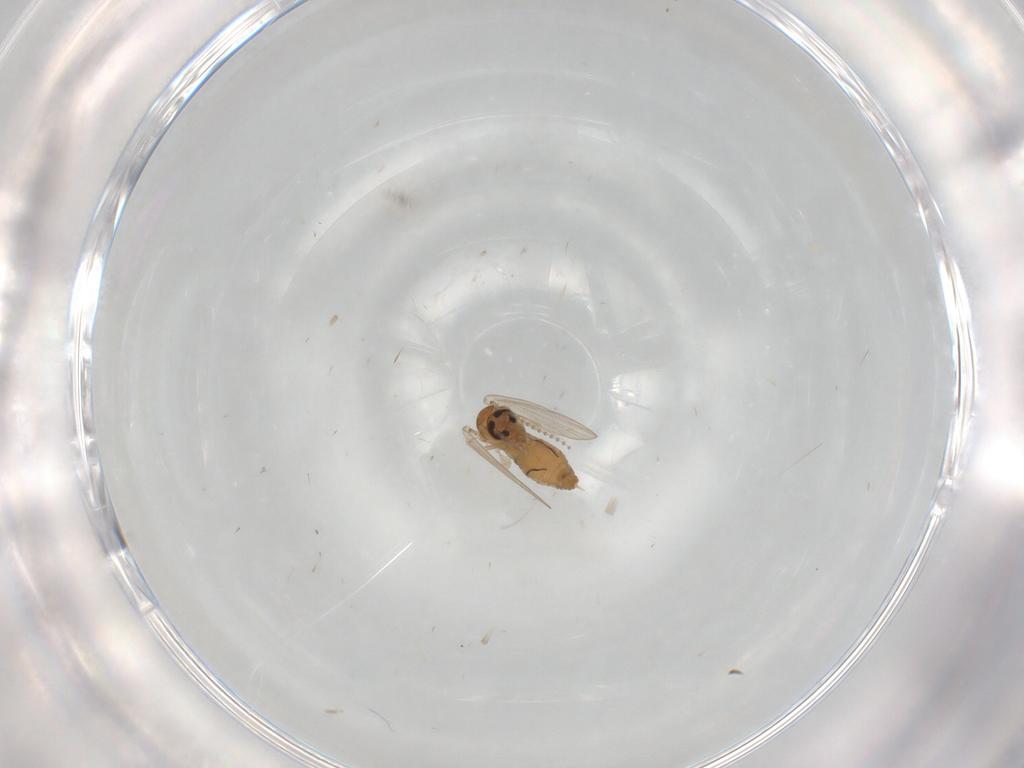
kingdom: Animalia
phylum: Arthropoda
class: Insecta
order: Diptera
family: Psychodidae
